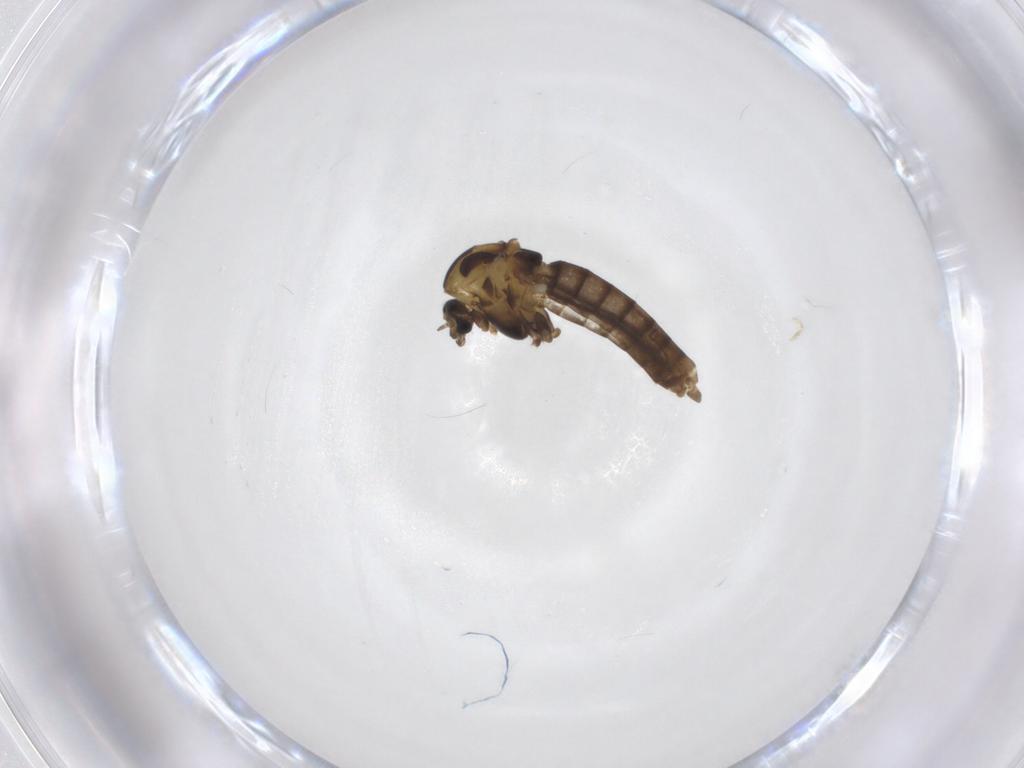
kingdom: Animalia
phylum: Arthropoda
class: Insecta
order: Diptera
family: Chironomidae
